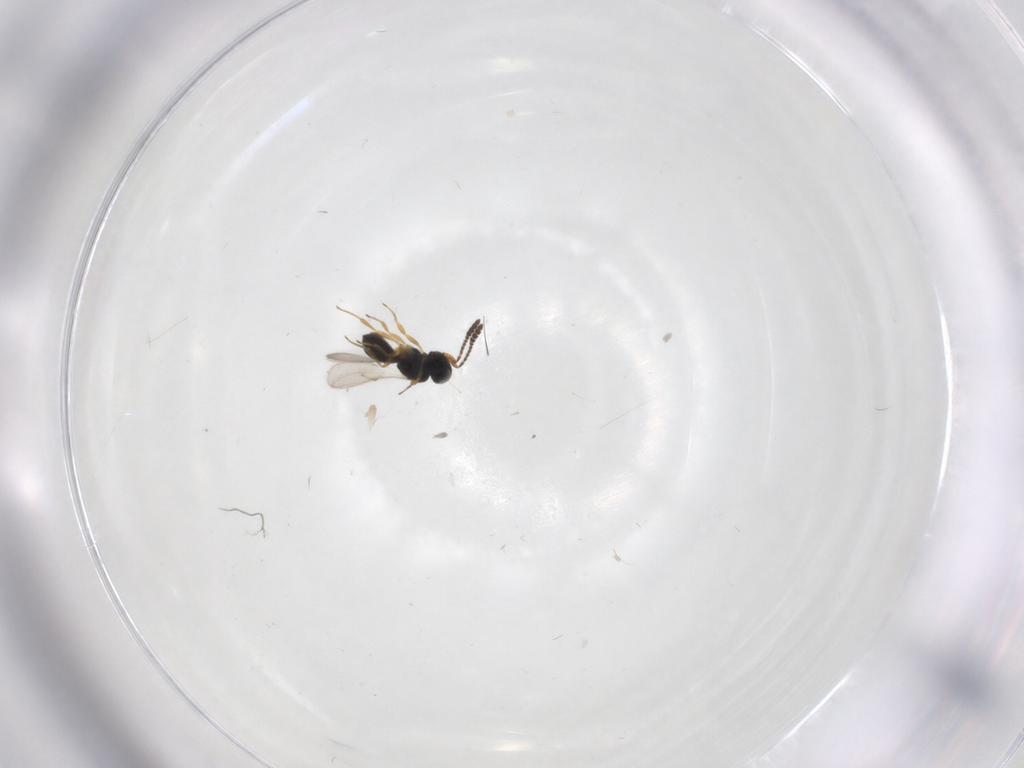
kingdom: Animalia
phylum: Arthropoda
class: Insecta
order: Hymenoptera
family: Scelionidae
